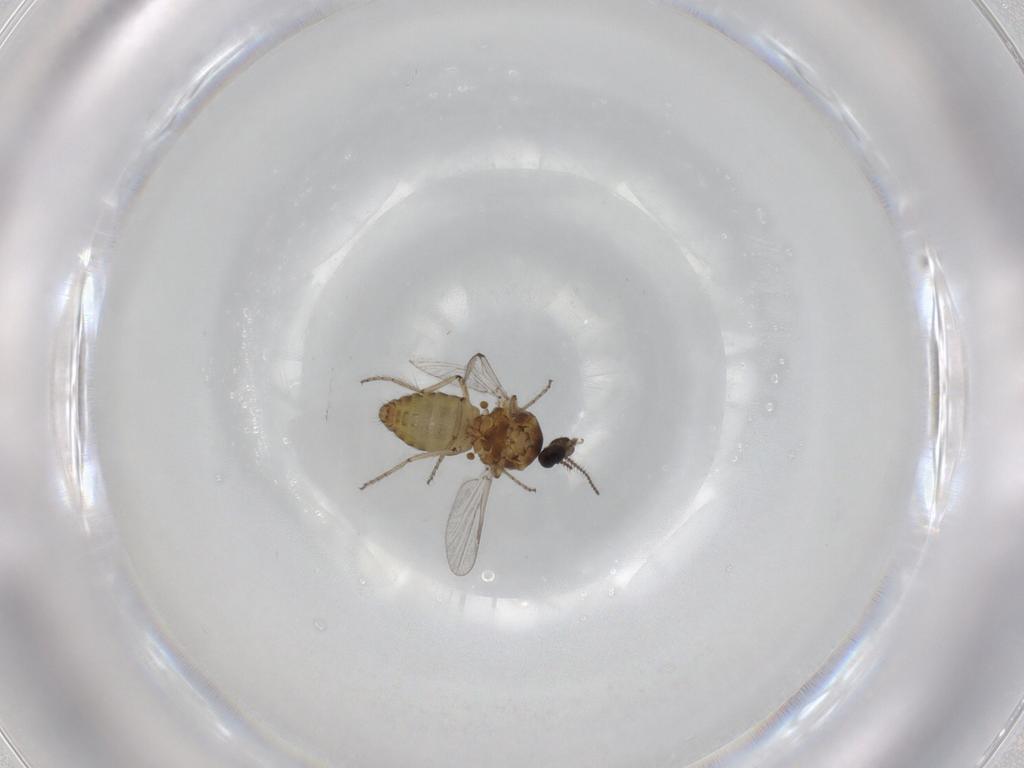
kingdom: Animalia
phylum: Arthropoda
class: Insecta
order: Diptera
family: Ceratopogonidae
